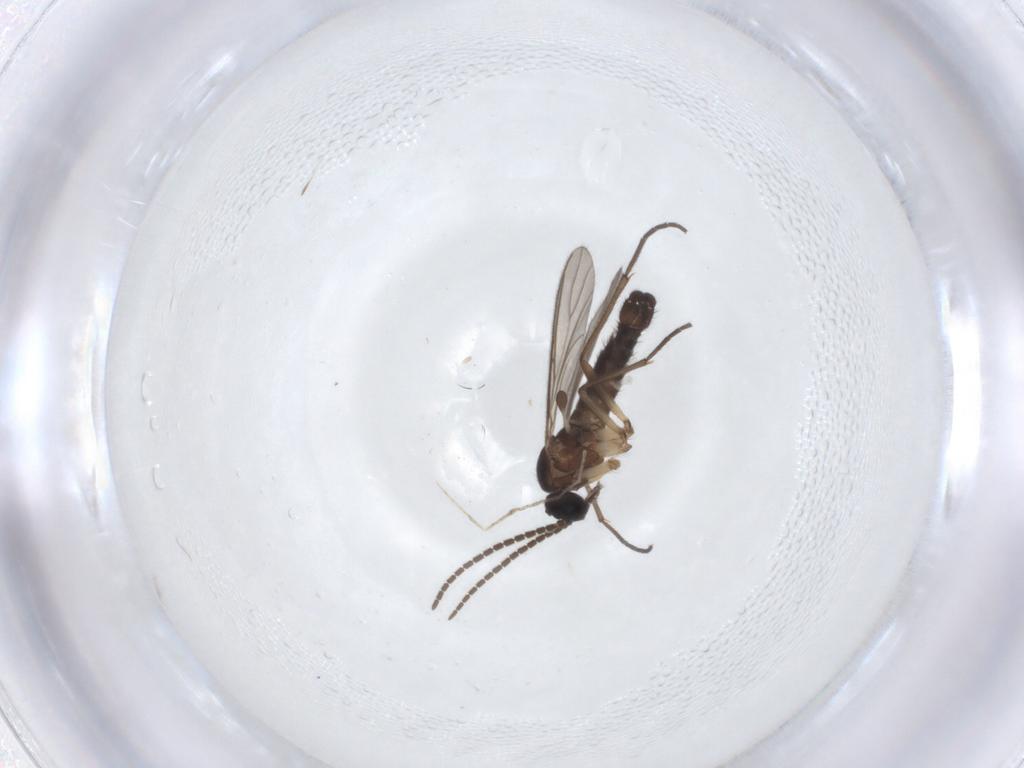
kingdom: Animalia
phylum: Arthropoda
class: Insecta
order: Diptera
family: Sciaridae
